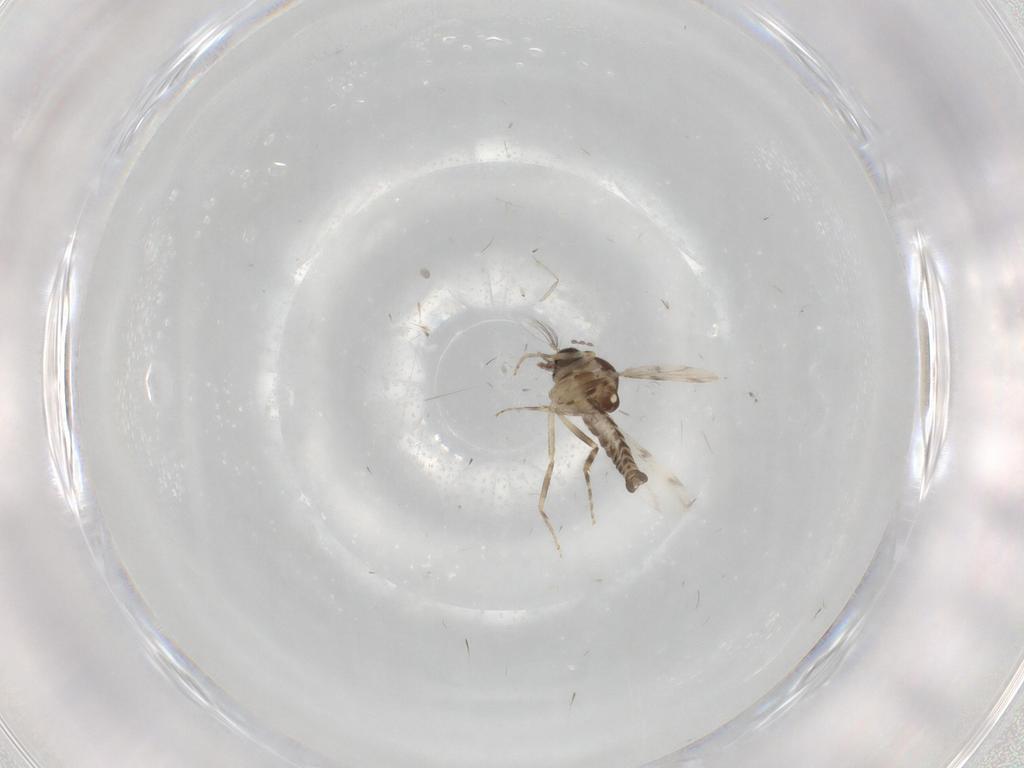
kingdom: Animalia
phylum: Arthropoda
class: Insecta
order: Diptera
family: Ceratopogonidae
